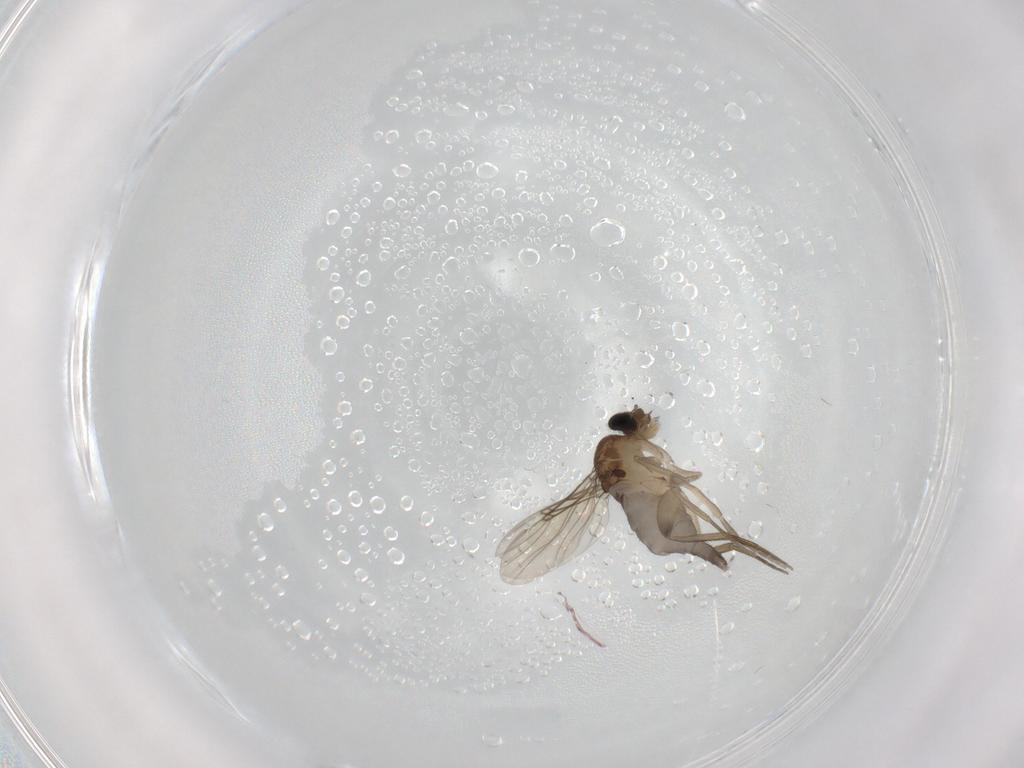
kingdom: Animalia
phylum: Arthropoda
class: Insecta
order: Diptera
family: Phoridae
